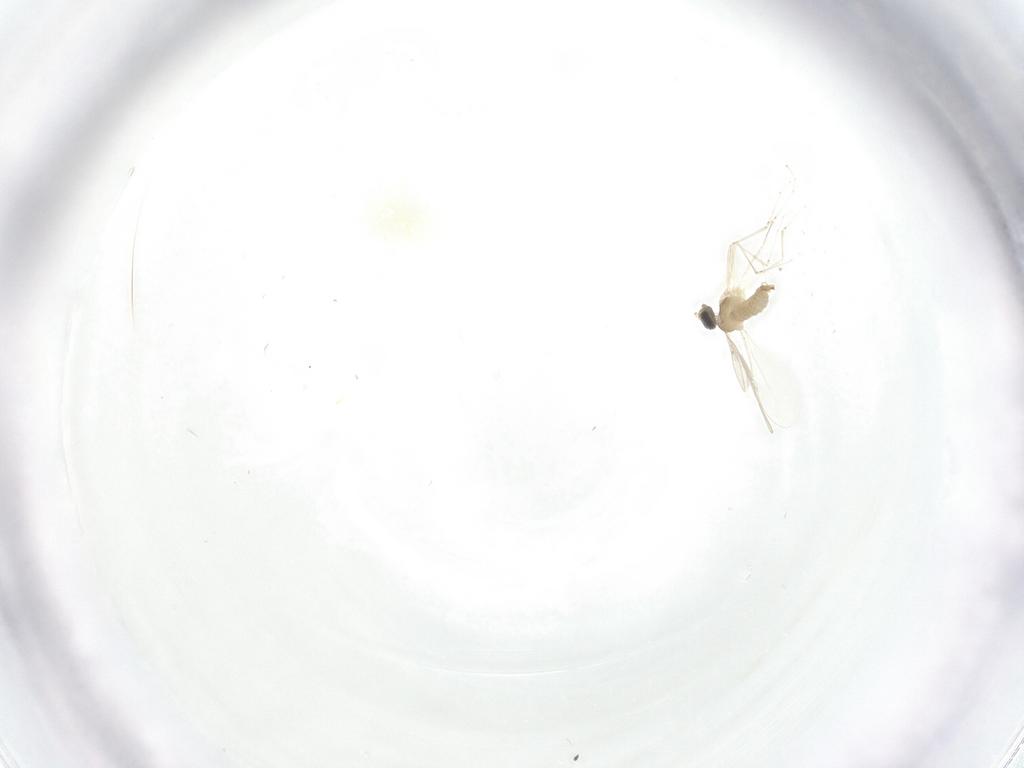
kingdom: Animalia
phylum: Arthropoda
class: Insecta
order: Diptera
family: Cecidomyiidae
